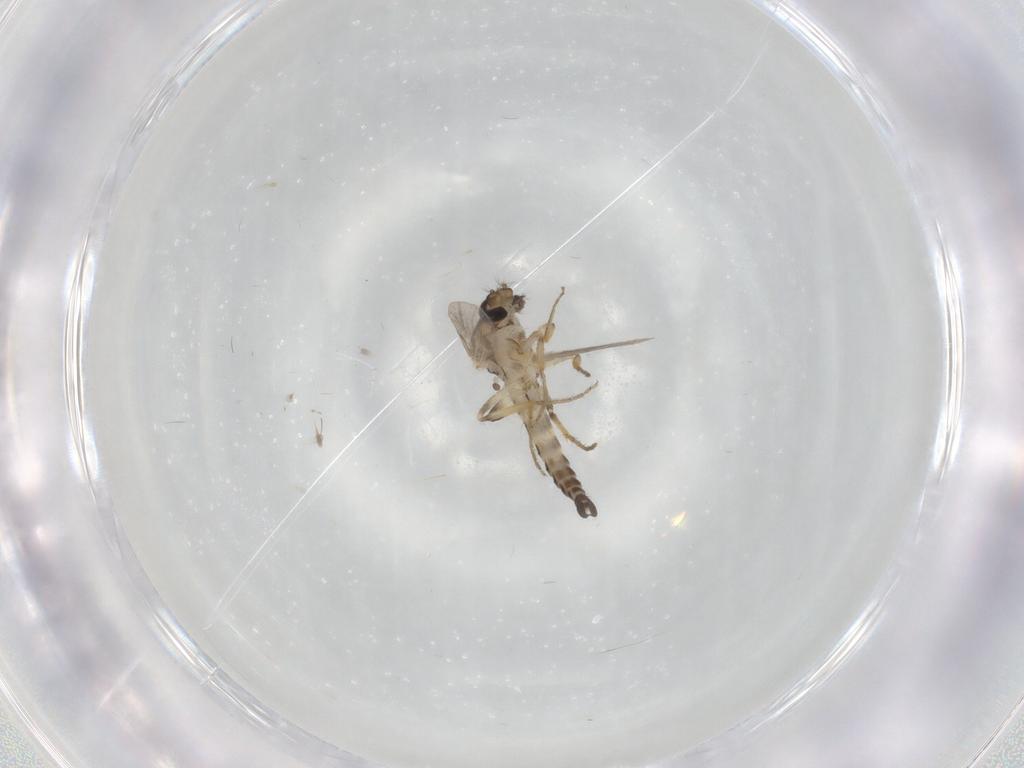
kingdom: Animalia
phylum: Arthropoda
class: Insecta
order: Diptera
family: Ceratopogonidae
